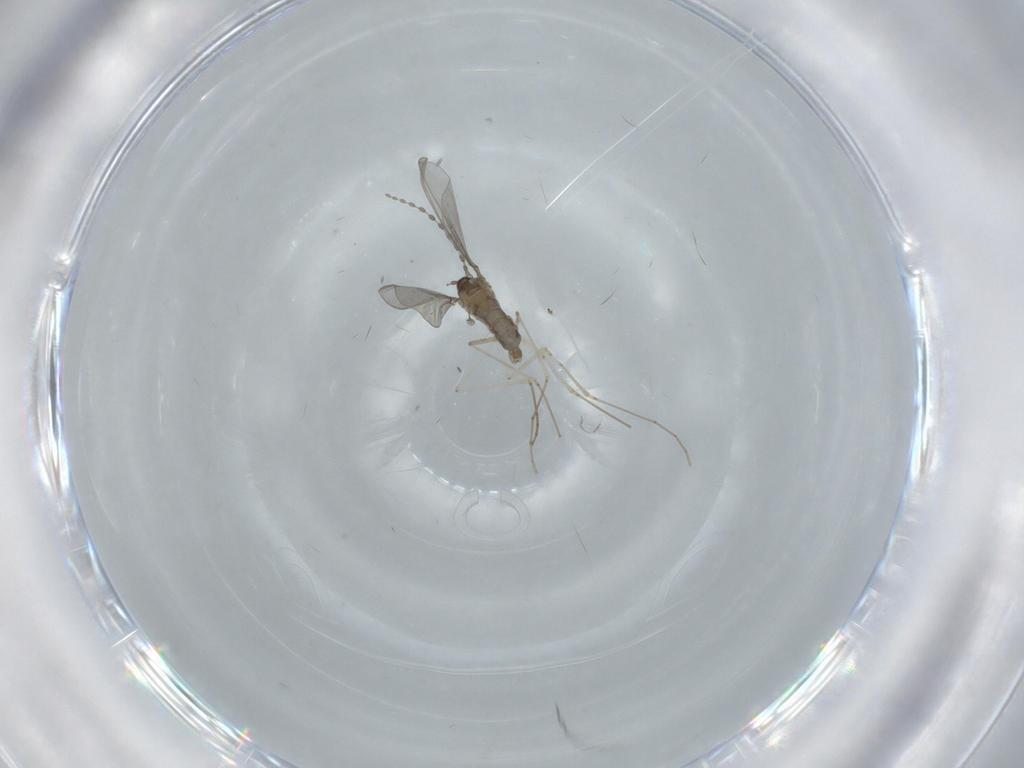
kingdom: Animalia
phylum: Arthropoda
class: Insecta
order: Diptera
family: Cecidomyiidae
